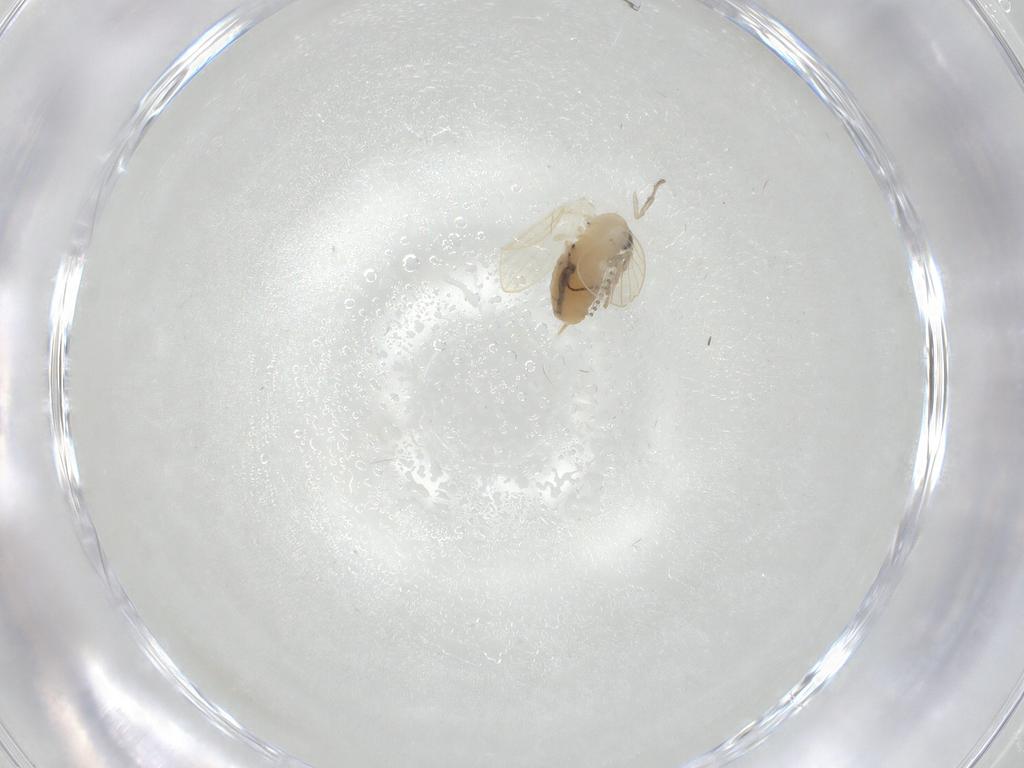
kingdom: Animalia
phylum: Arthropoda
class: Insecta
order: Diptera
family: Psychodidae
